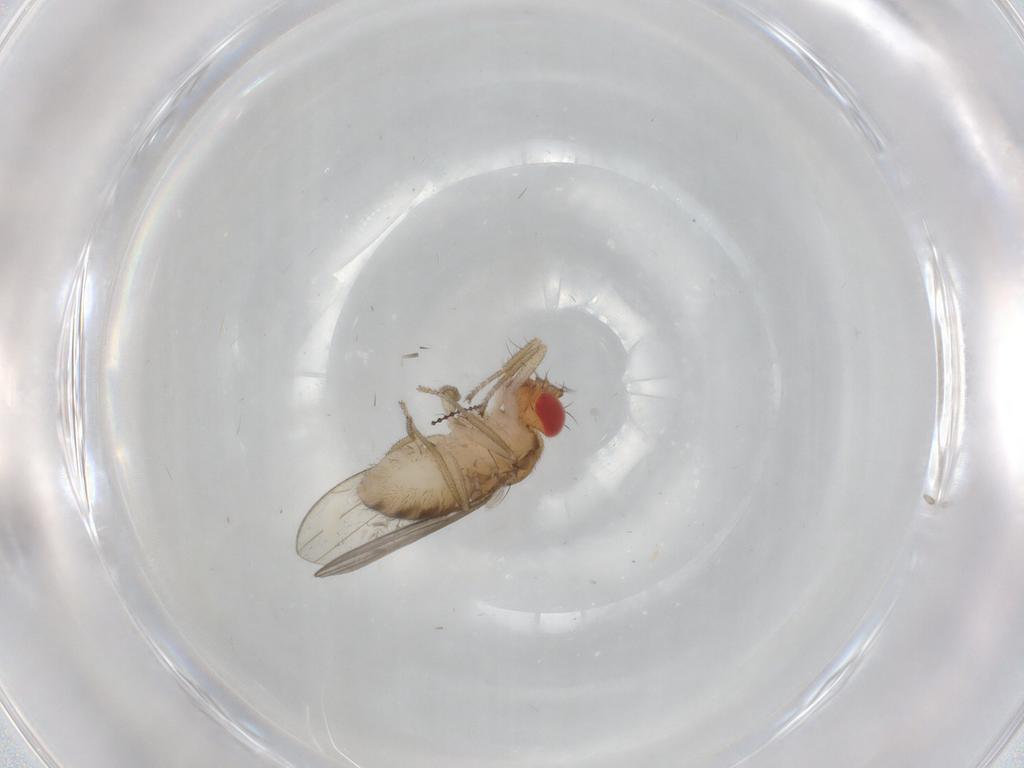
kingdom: Animalia
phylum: Arthropoda
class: Insecta
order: Diptera
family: Drosophilidae
